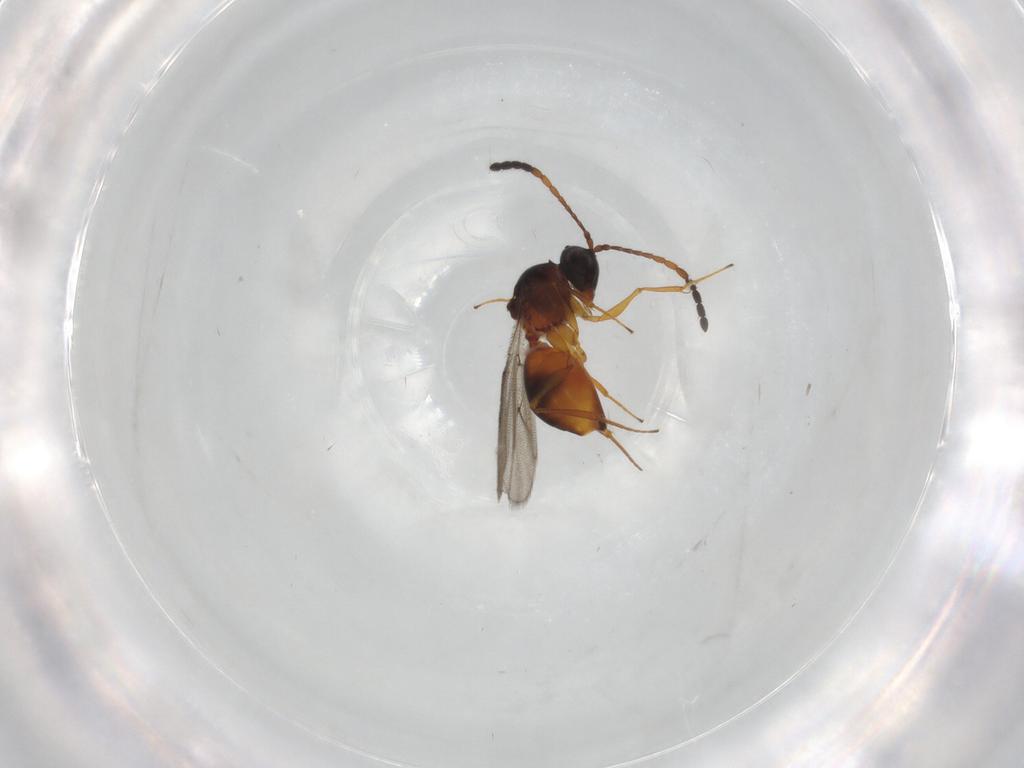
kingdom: Animalia
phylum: Arthropoda
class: Insecta
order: Hymenoptera
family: Figitidae
